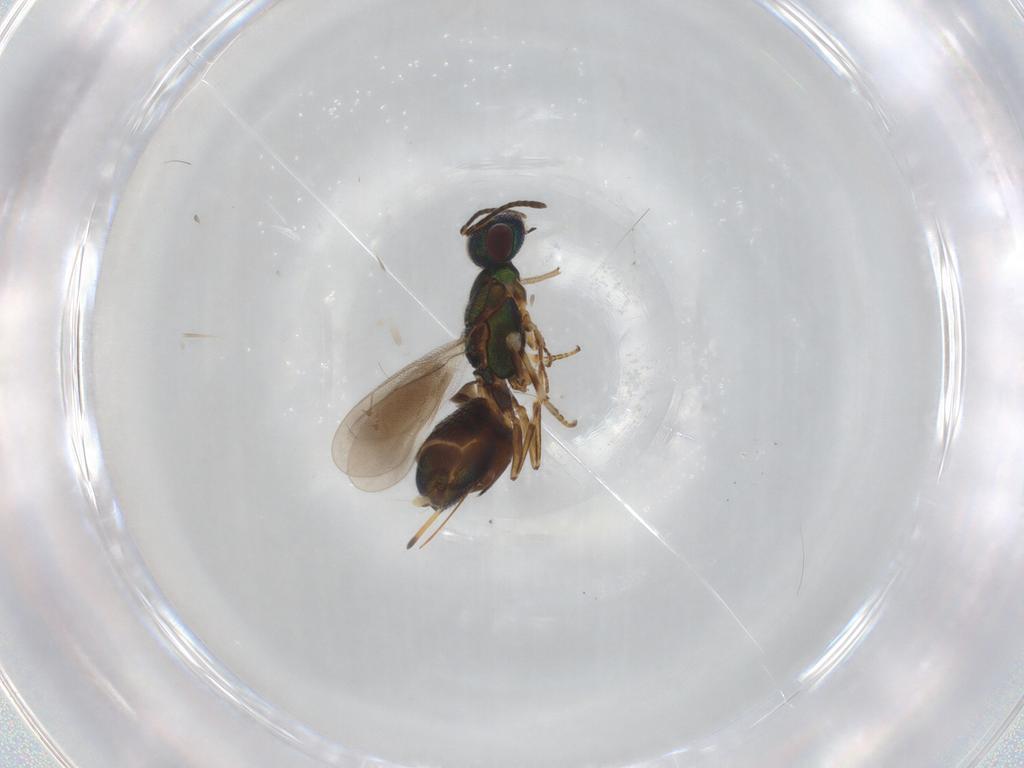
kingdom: Animalia
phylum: Arthropoda
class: Insecta
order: Hymenoptera
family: Eupelmidae
